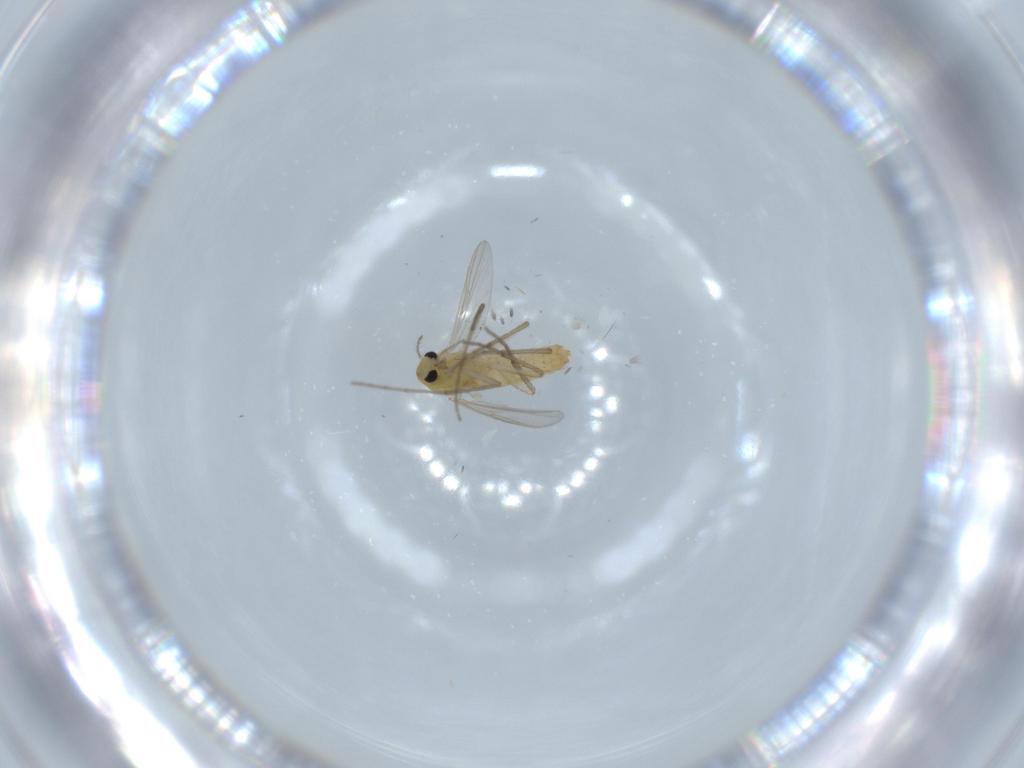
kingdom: Animalia
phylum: Arthropoda
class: Insecta
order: Diptera
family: Chironomidae
